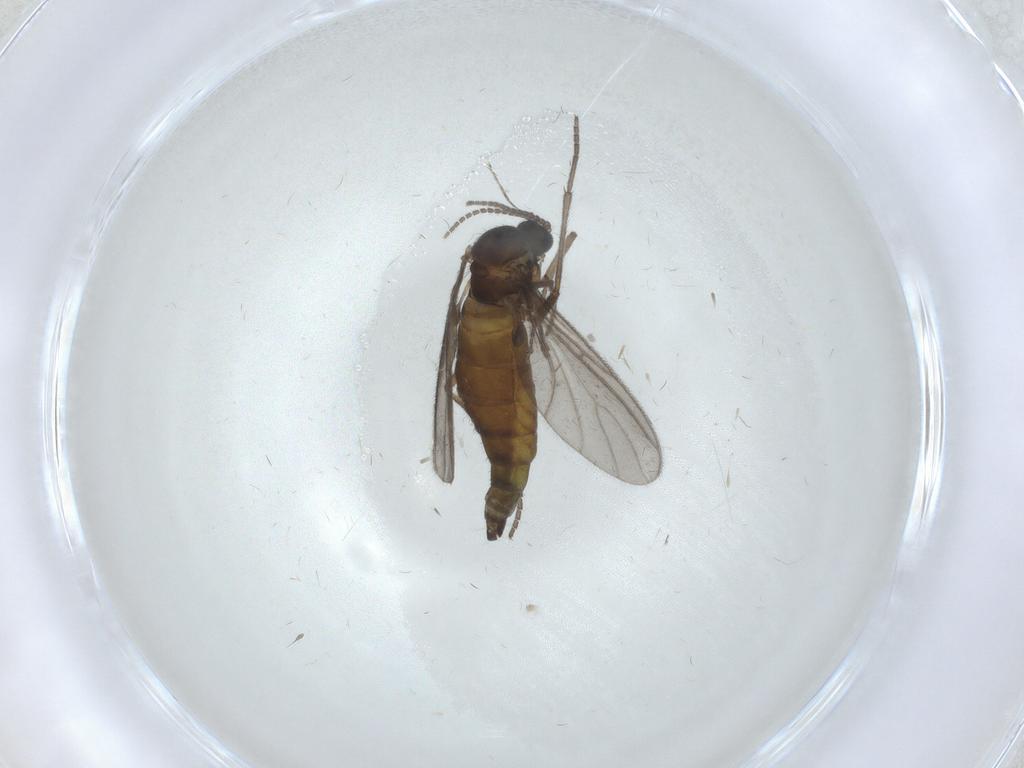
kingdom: Animalia
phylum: Arthropoda
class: Insecta
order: Diptera
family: Sciaridae
